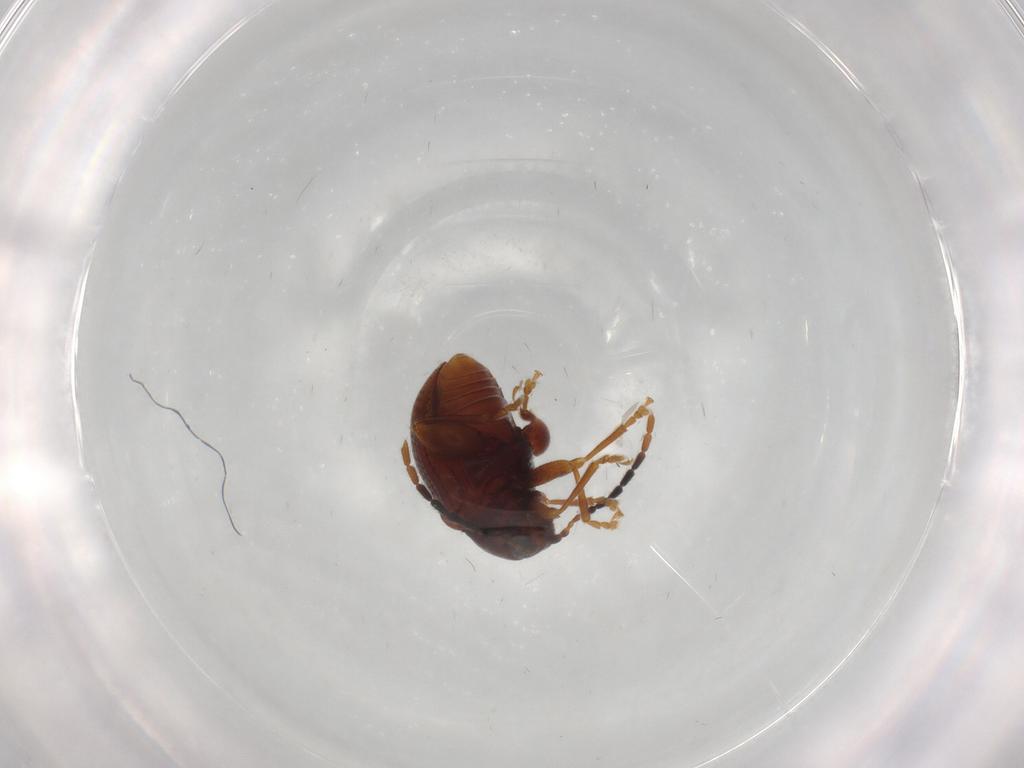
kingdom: Animalia
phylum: Arthropoda
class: Insecta
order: Coleoptera
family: Chrysomelidae
